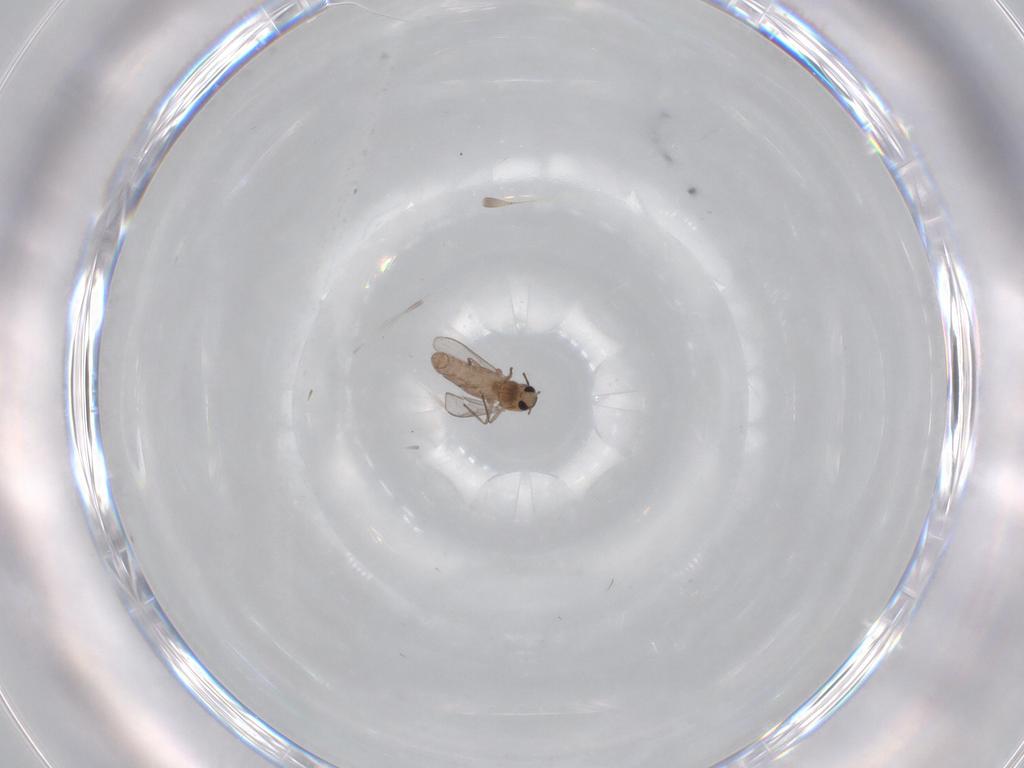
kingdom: Animalia
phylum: Arthropoda
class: Insecta
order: Diptera
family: Chironomidae
